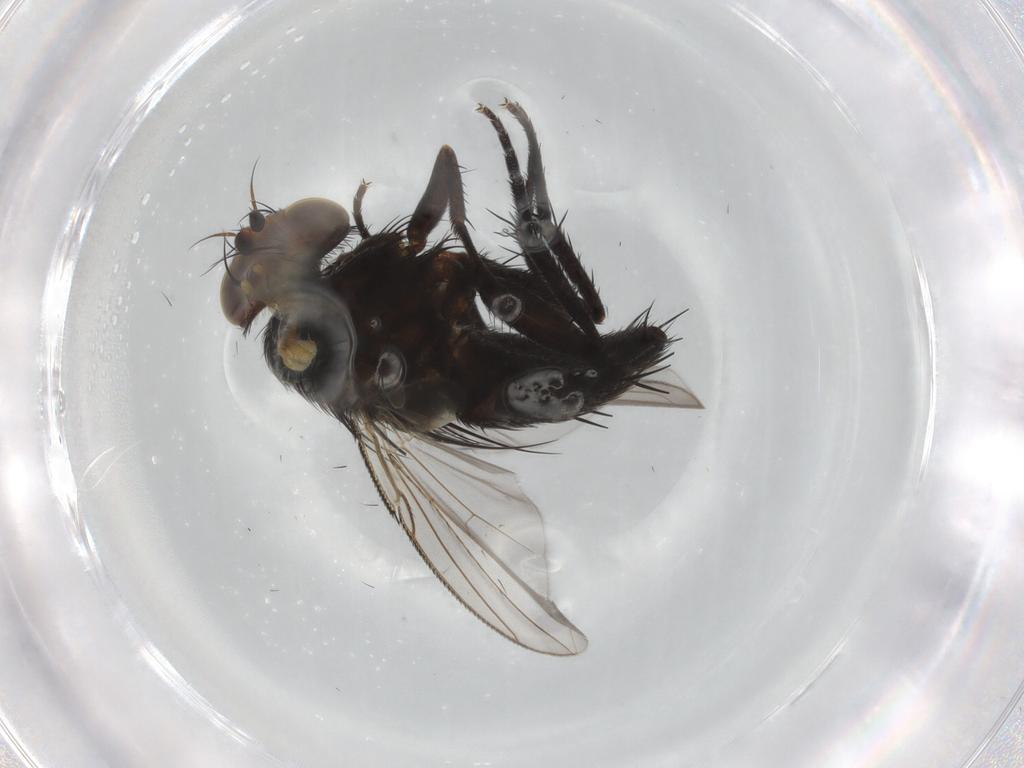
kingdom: Animalia
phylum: Arthropoda
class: Insecta
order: Diptera
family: Tachinidae
